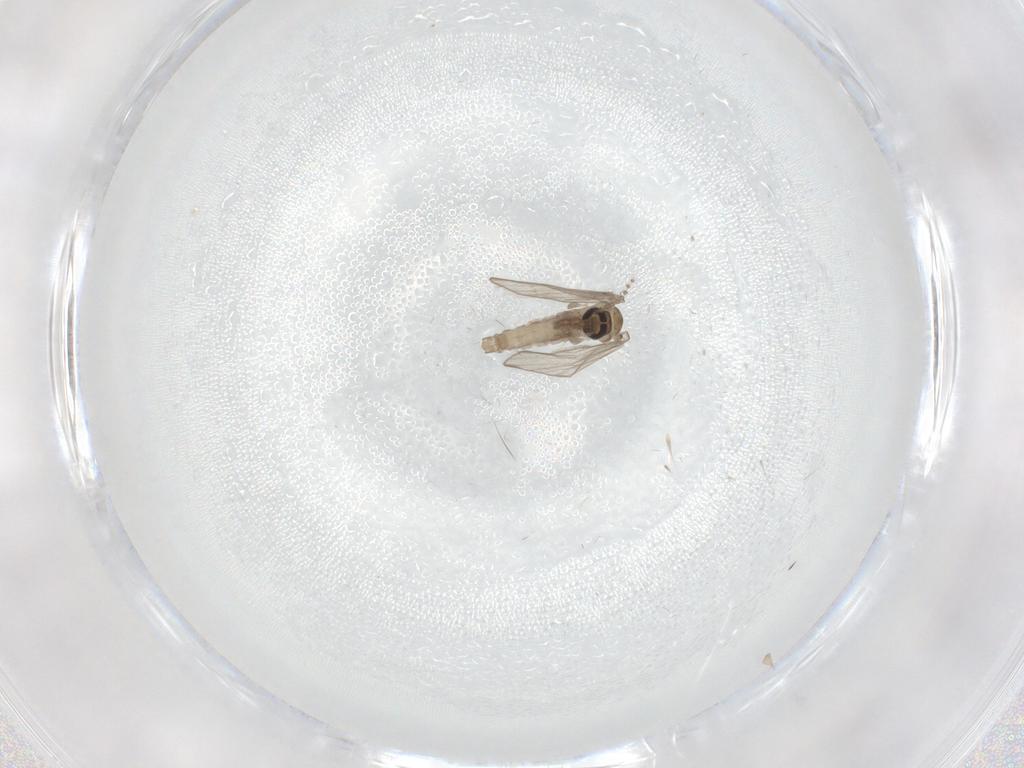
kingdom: Animalia
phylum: Arthropoda
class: Insecta
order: Diptera
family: Psychodidae
